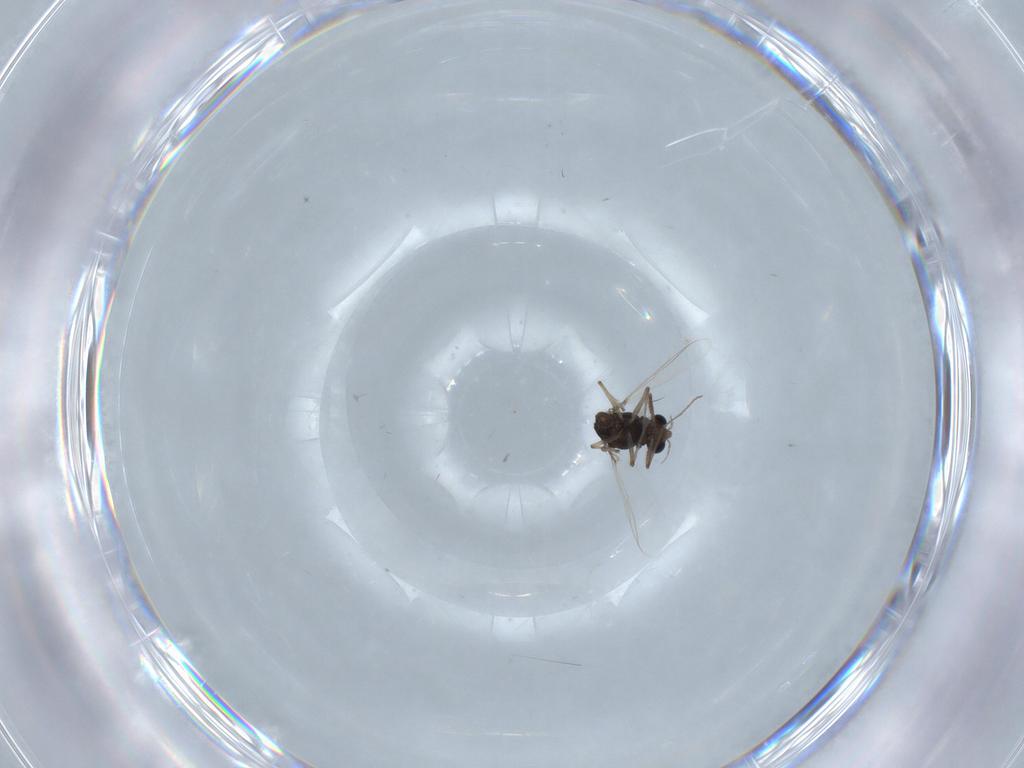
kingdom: Animalia
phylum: Arthropoda
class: Insecta
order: Diptera
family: Chironomidae
